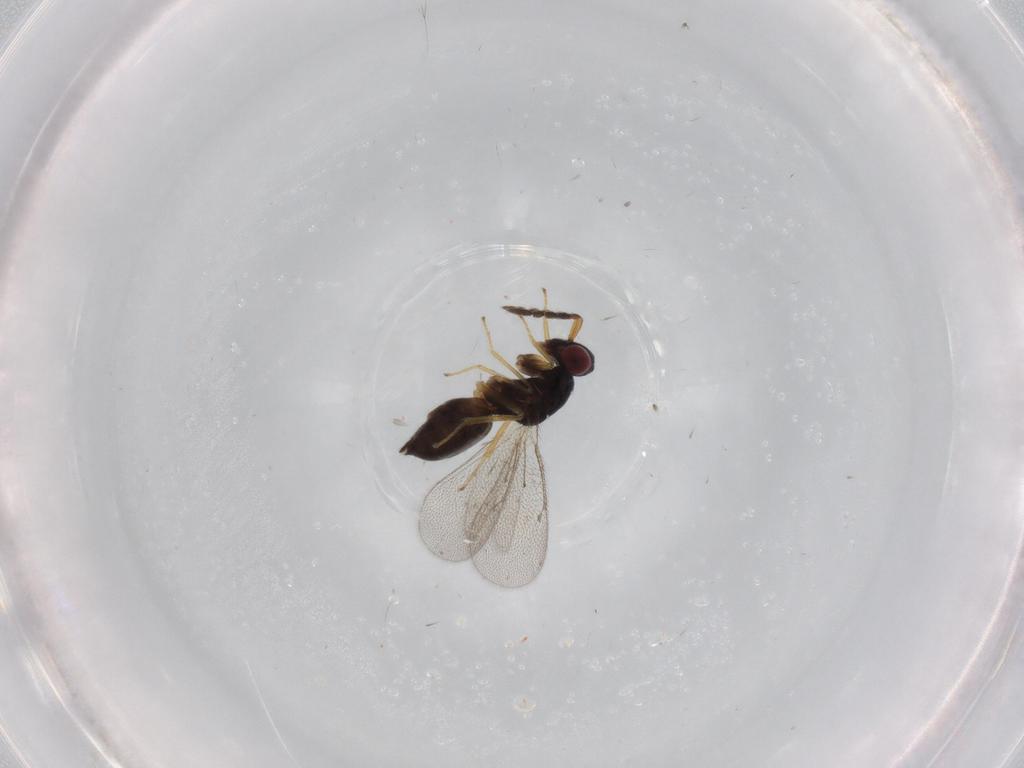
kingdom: Animalia
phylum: Arthropoda
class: Insecta
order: Hymenoptera
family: Eulophidae
